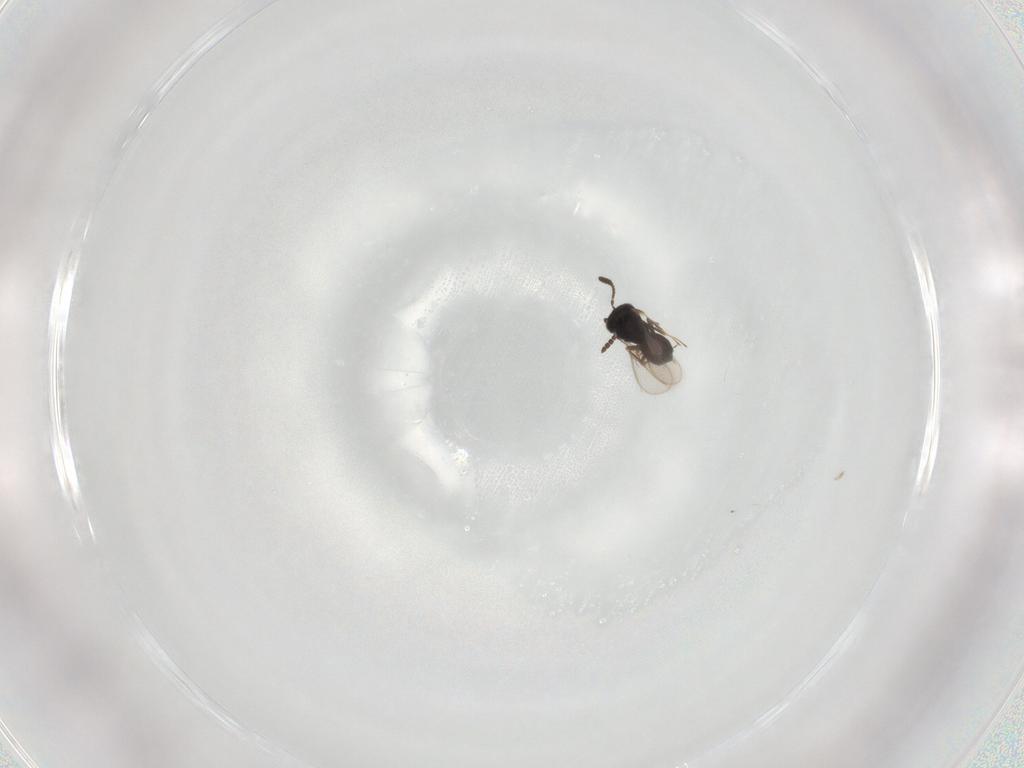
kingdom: Animalia
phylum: Arthropoda
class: Insecta
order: Hymenoptera
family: Scelionidae
